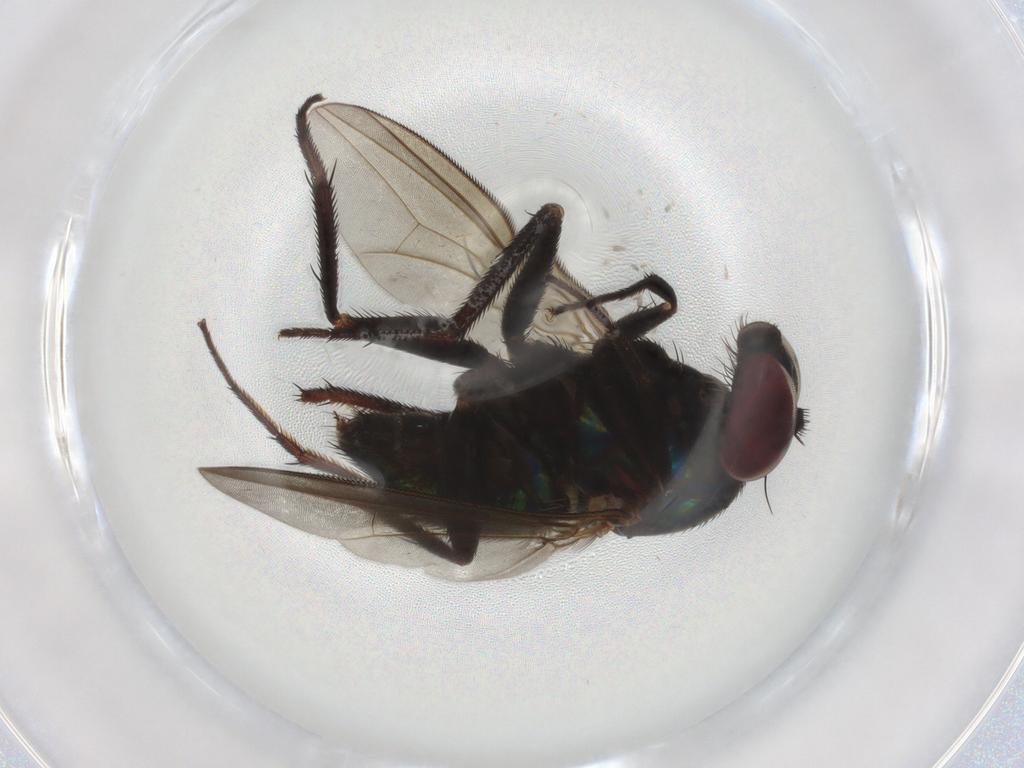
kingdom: Animalia
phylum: Arthropoda
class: Insecta
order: Diptera
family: Dolichopodidae
